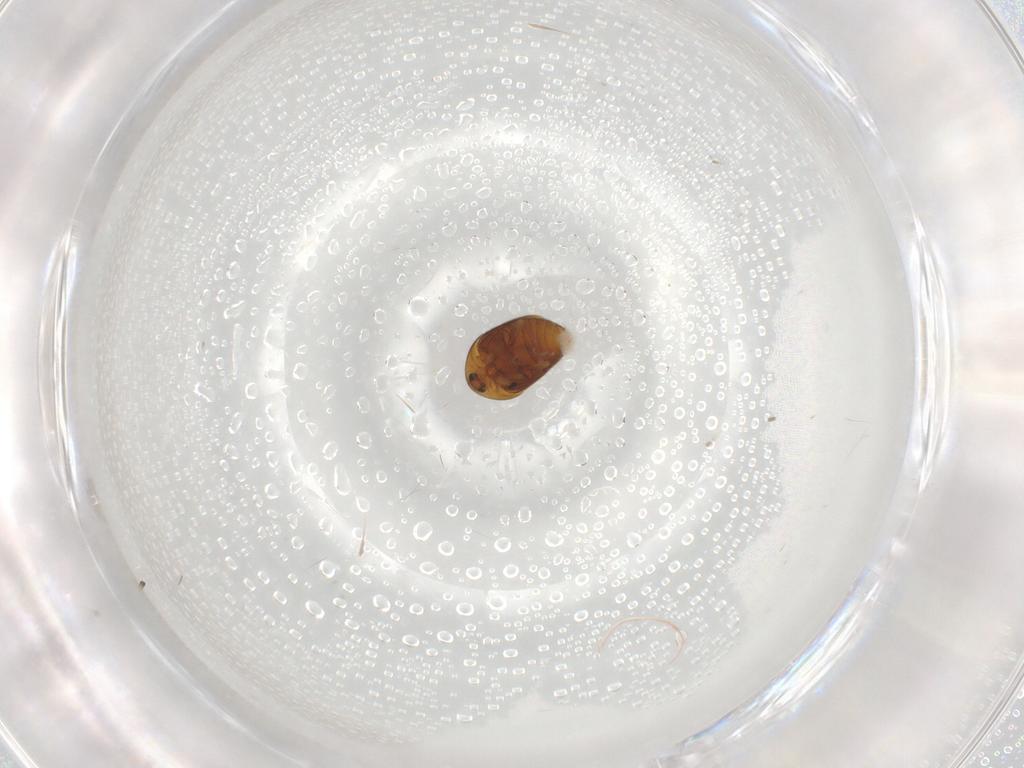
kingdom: Animalia
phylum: Arthropoda
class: Insecta
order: Coleoptera
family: Corylophidae
